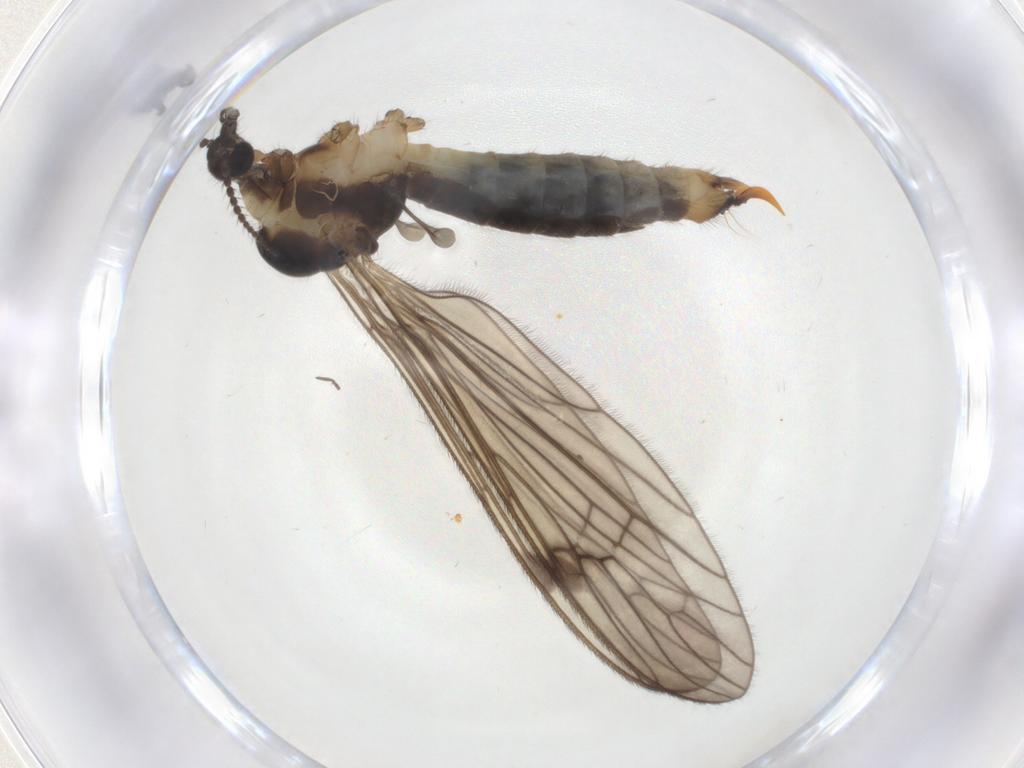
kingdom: Animalia
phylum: Arthropoda
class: Insecta
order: Diptera
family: Limoniidae
